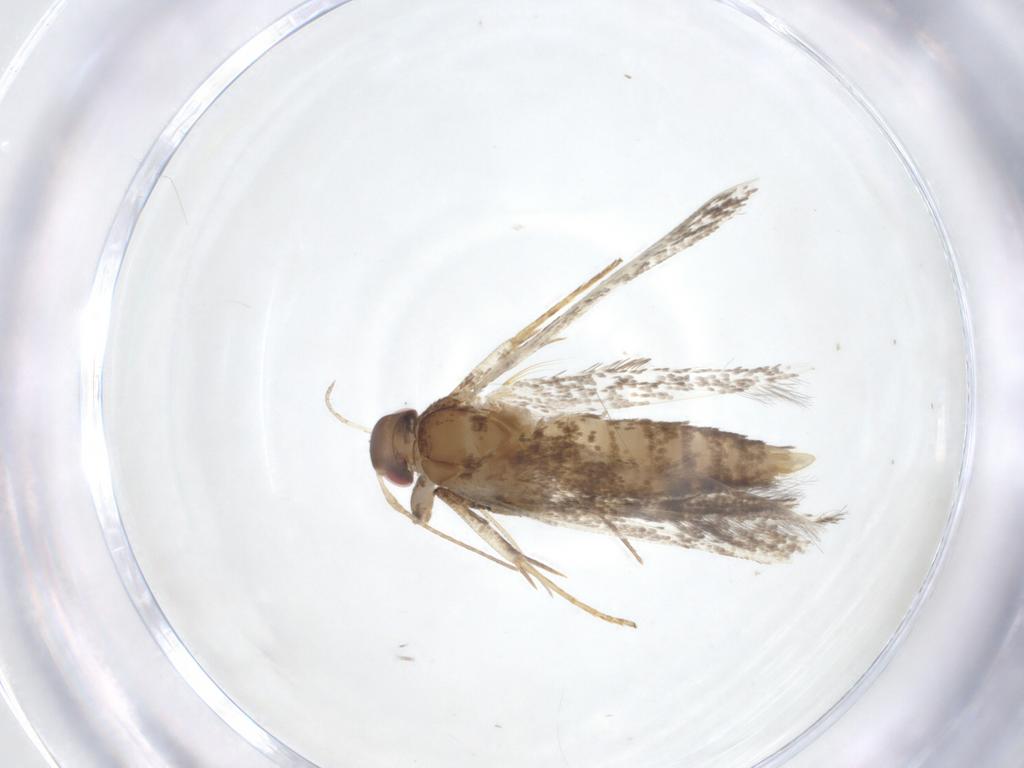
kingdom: Animalia
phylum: Arthropoda
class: Insecta
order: Lepidoptera
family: Gelechiidae
